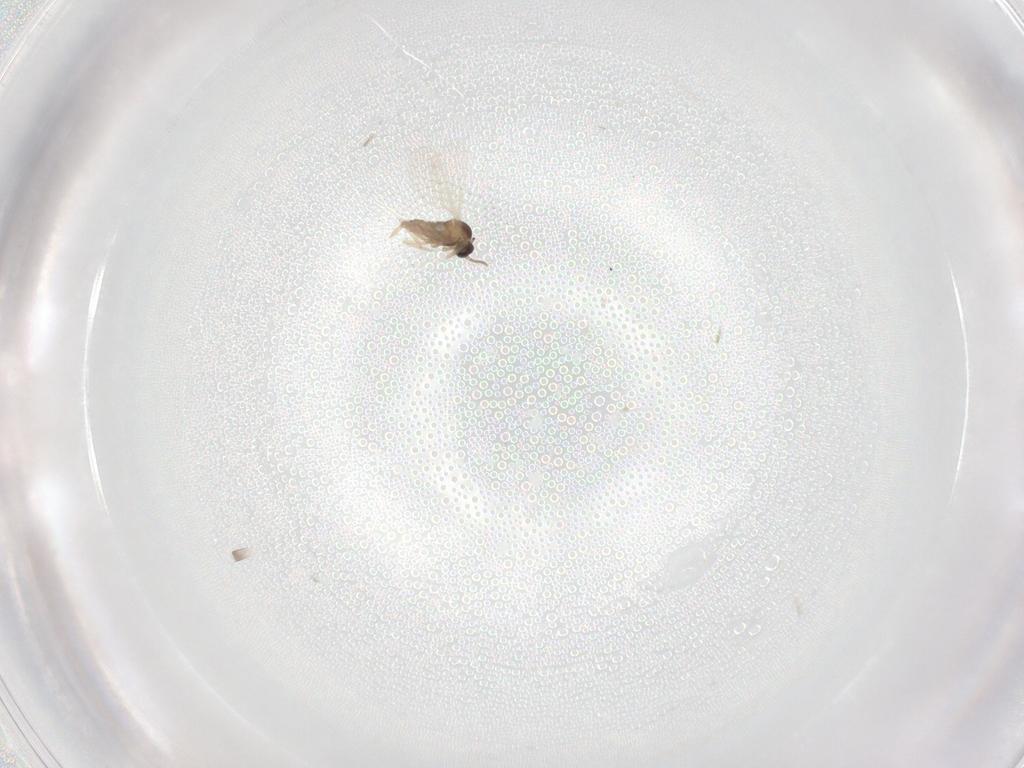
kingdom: Animalia
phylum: Arthropoda
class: Insecta
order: Diptera
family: Cecidomyiidae
